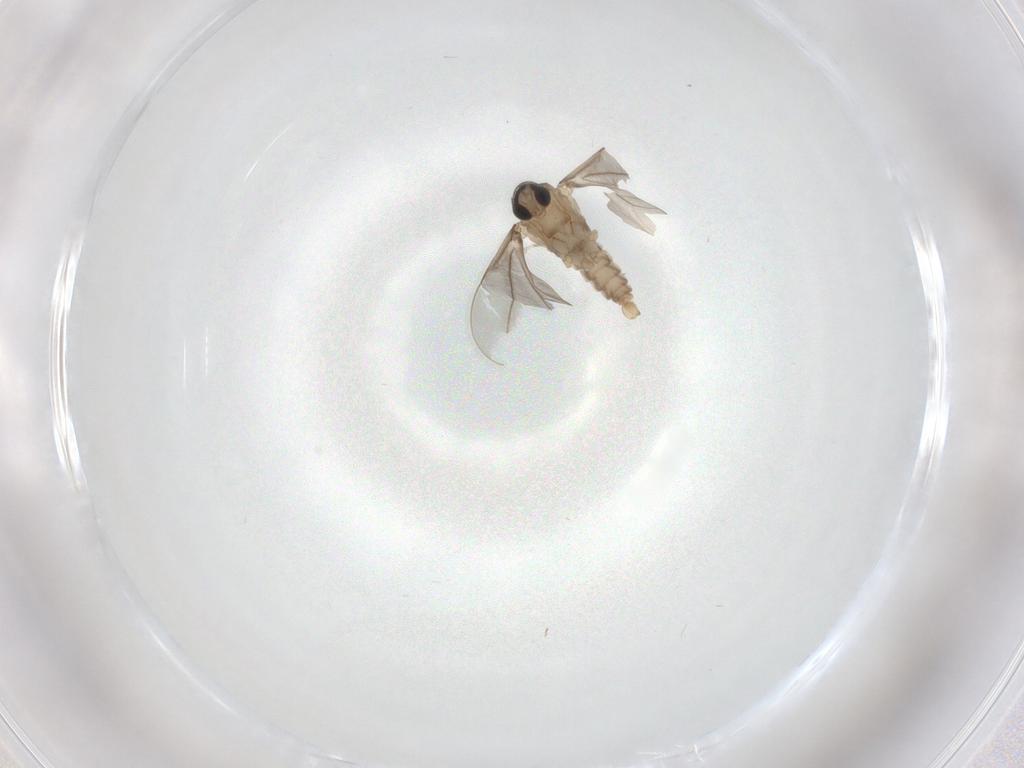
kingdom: Animalia
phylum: Arthropoda
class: Insecta
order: Diptera
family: Cecidomyiidae
